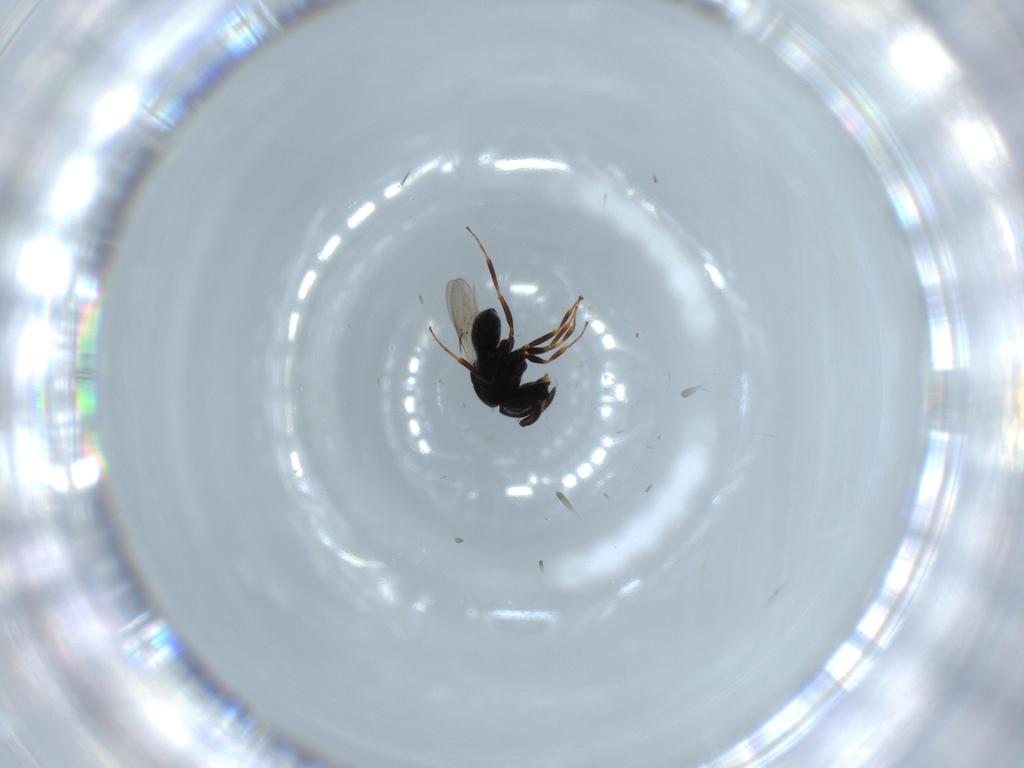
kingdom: Animalia
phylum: Arthropoda
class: Insecta
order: Hymenoptera
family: Scelionidae
